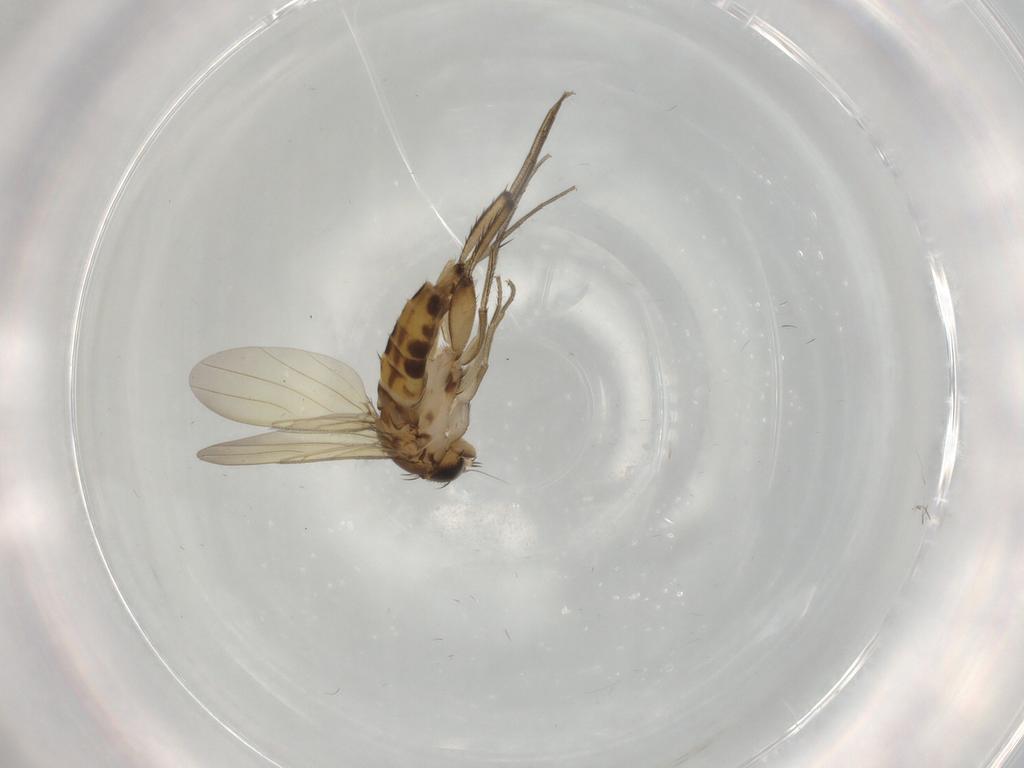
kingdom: Animalia
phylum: Arthropoda
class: Insecta
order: Diptera
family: Phoridae
